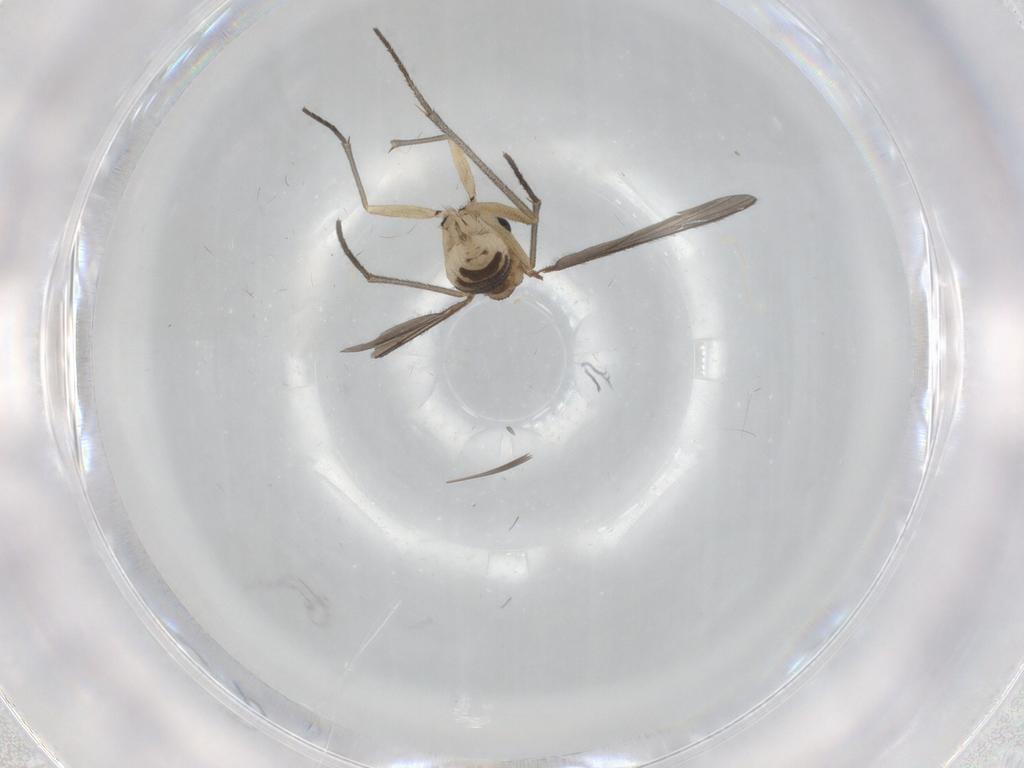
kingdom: Animalia
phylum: Arthropoda
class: Insecta
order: Diptera
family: Sciaridae
